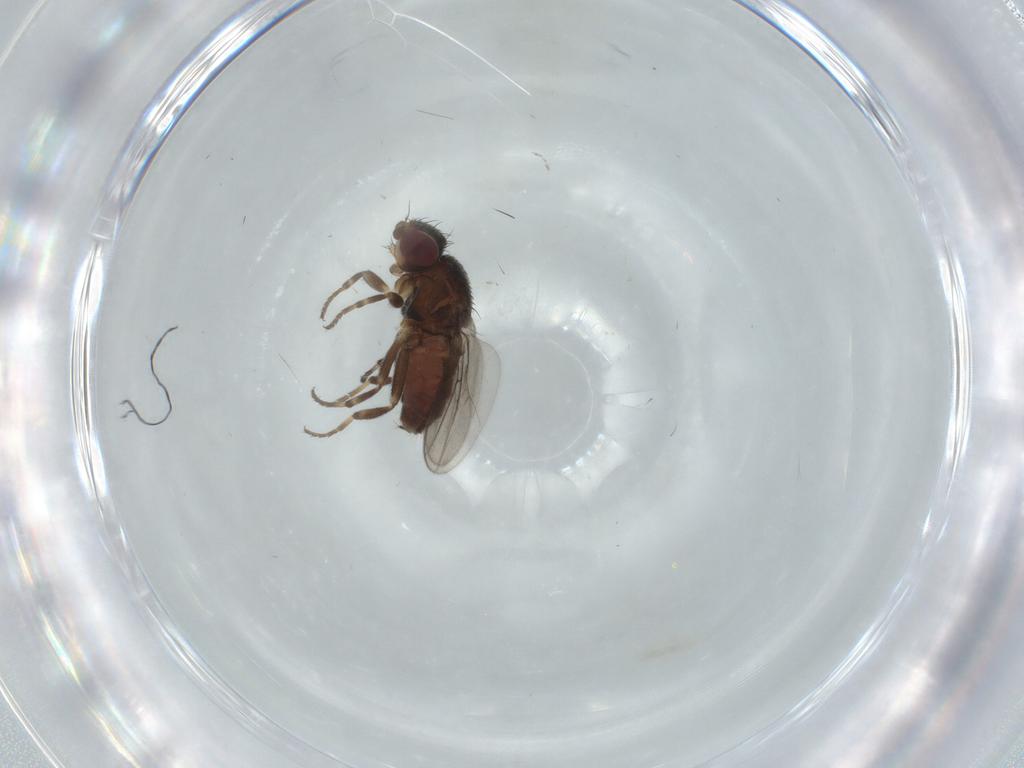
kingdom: Animalia
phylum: Arthropoda
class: Insecta
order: Diptera
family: Chloropidae
